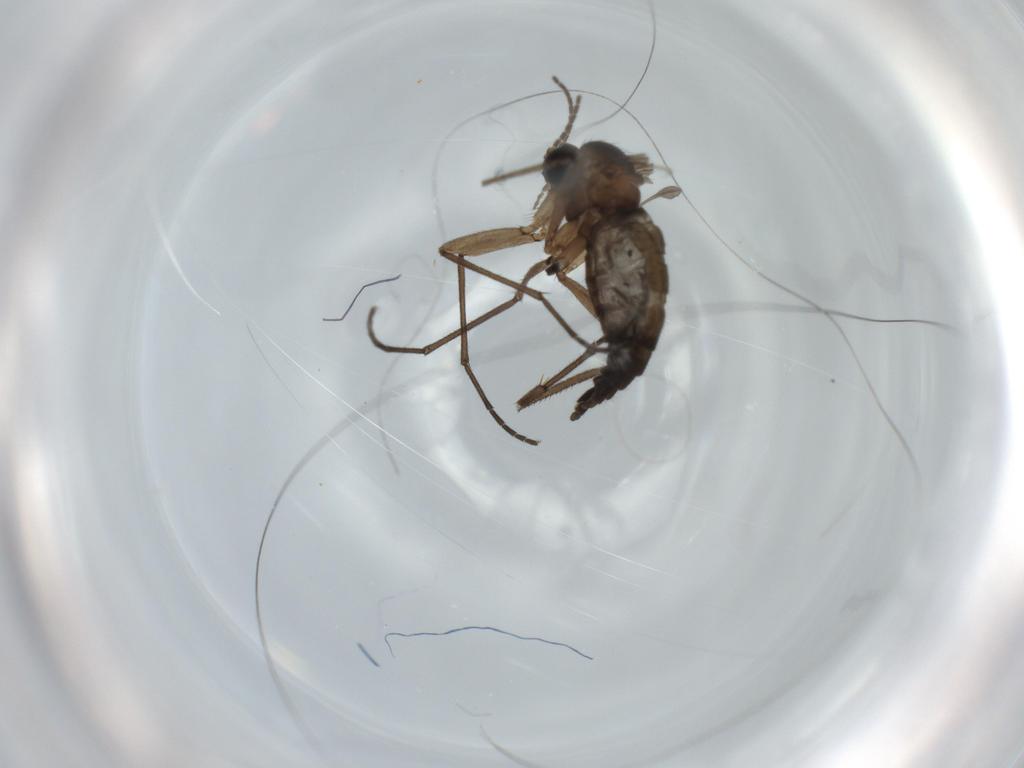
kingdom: Animalia
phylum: Arthropoda
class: Insecta
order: Diptera
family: Sciaridae
